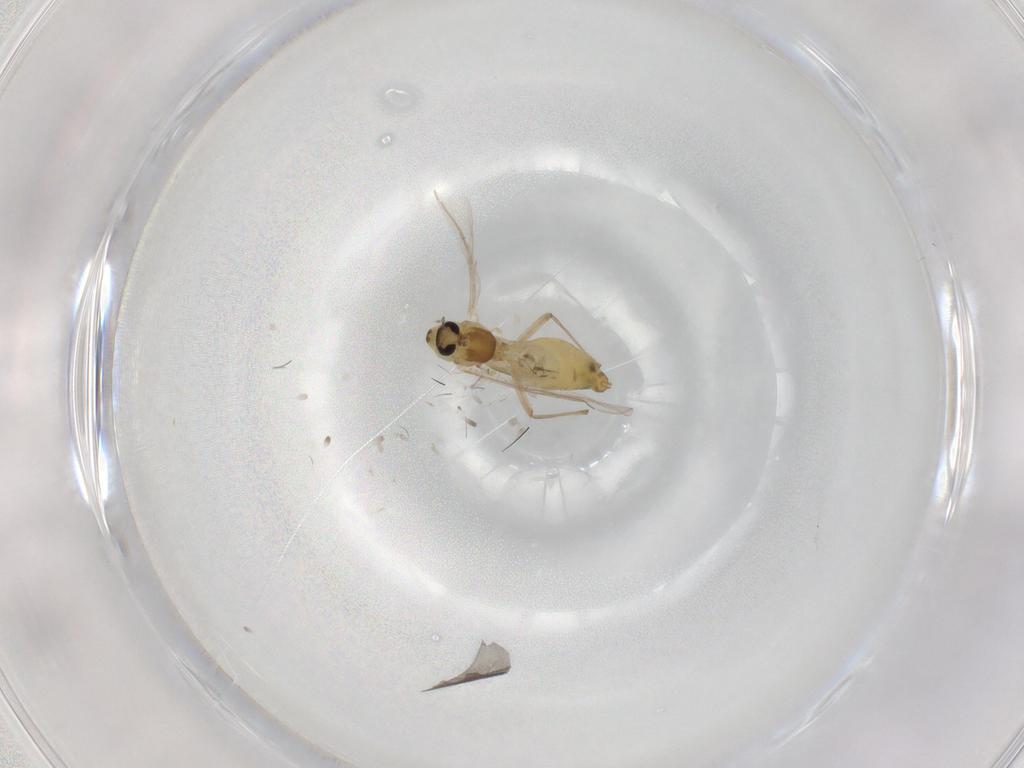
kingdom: Animalia
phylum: Arthropoda
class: Insecta
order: Diptera
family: Chironomidae
